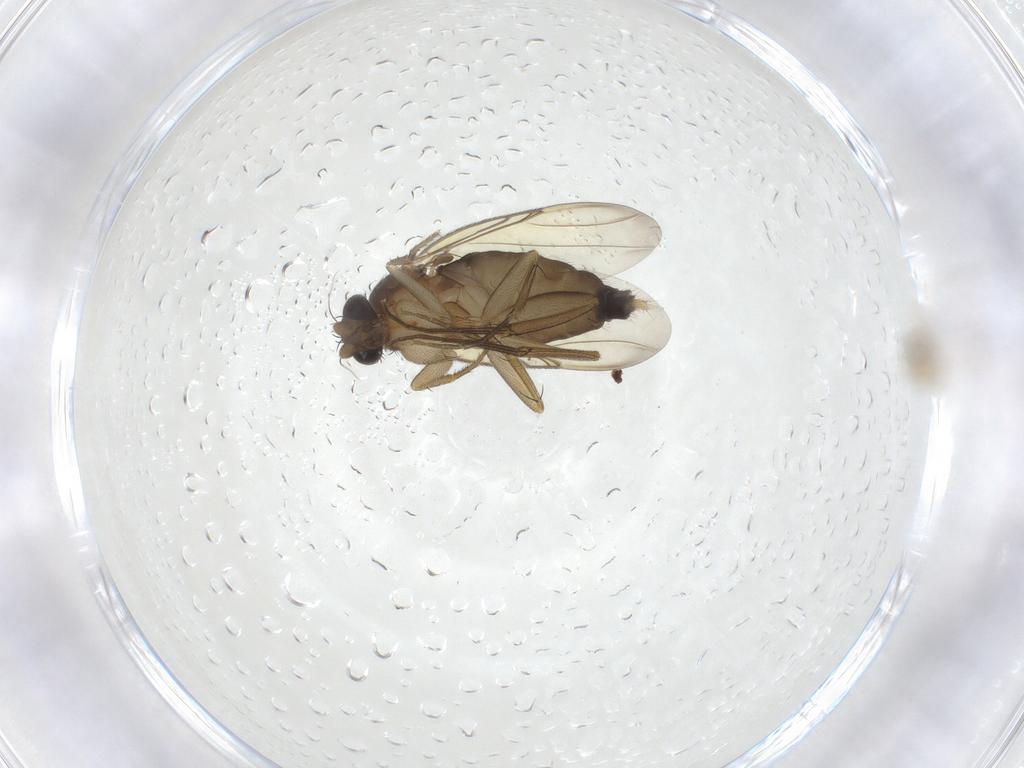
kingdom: Animalia
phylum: Arthropoda
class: Insecta
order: Diptera
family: Cecidomyiidae
